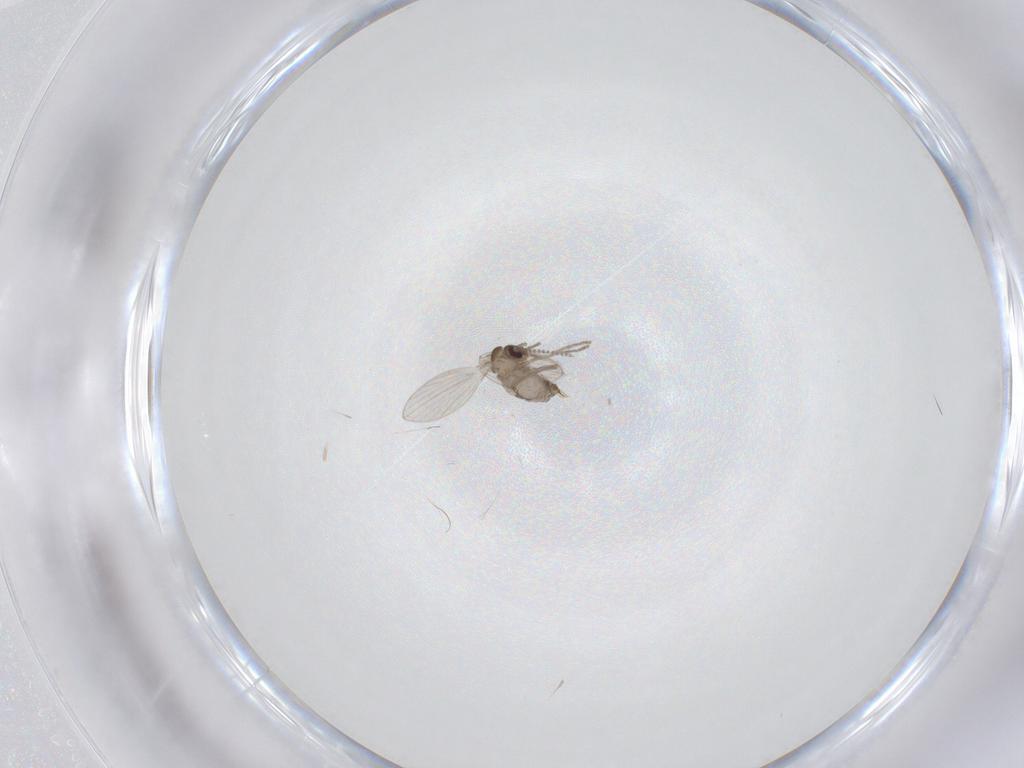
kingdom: Animalia
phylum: Arthropoda
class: Insecta
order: Diptera
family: Psychodidae
